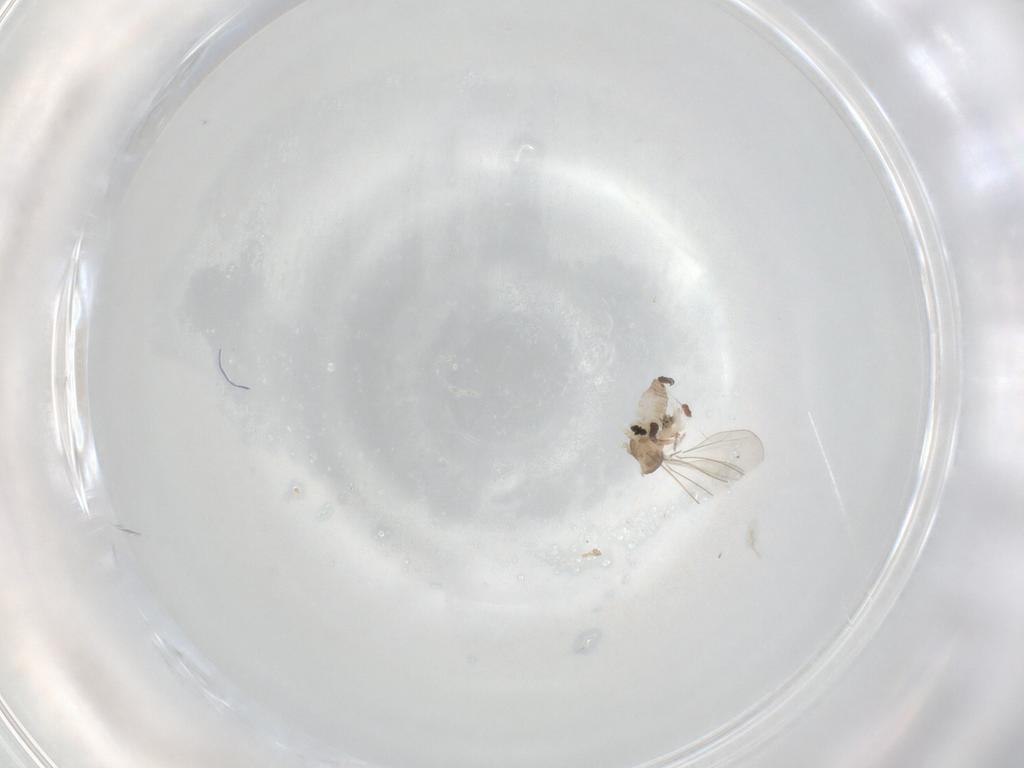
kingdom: Animalia
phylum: Arthropoda
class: Insecta
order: Diptera
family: Cecidomyiidae
